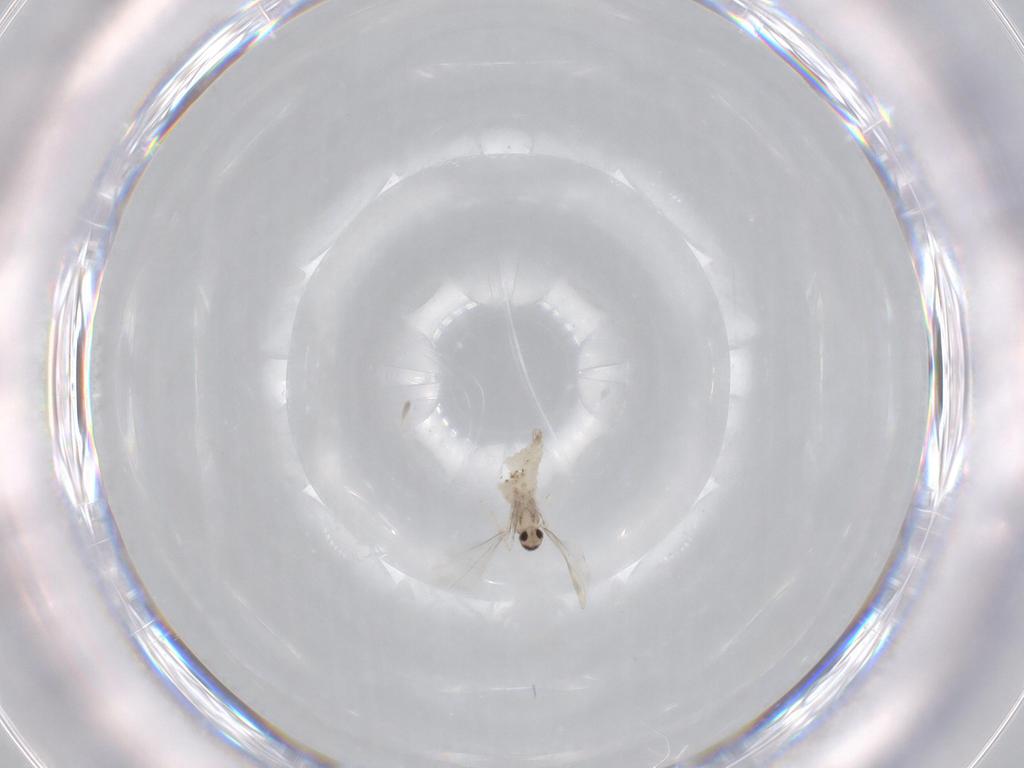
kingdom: Animalia
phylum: Arthropoda
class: Insecta
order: Diptera
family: Cecidomyiidae
